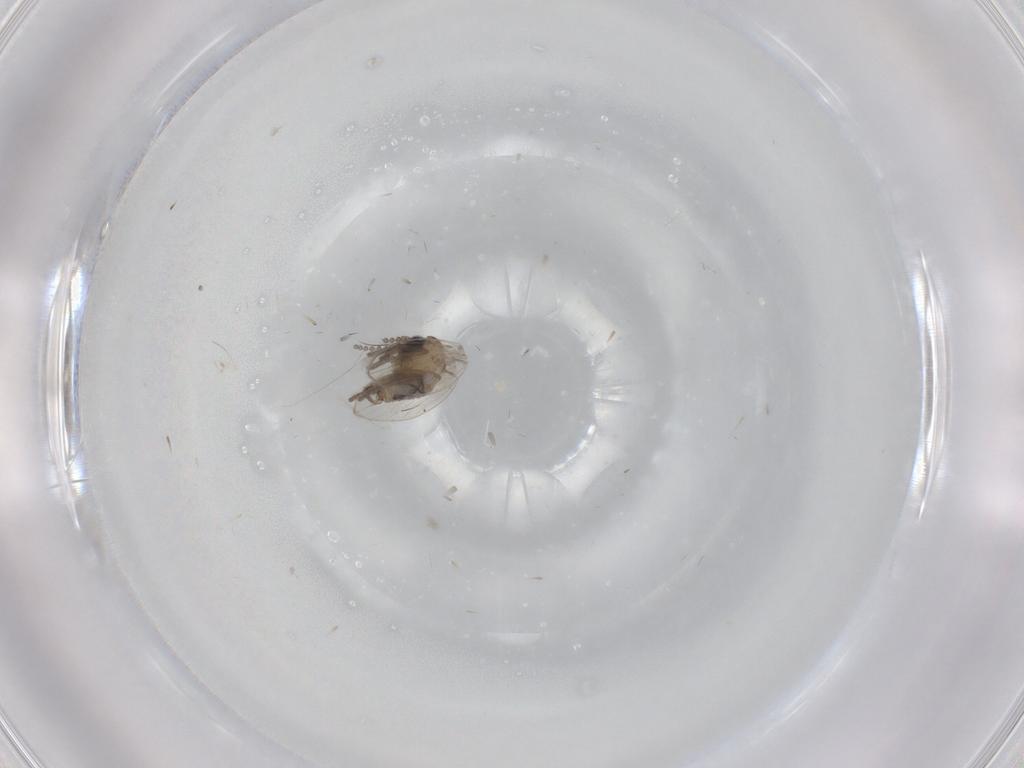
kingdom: Animalia
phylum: Arthropoda
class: Insecta
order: Diptera
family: Psychodidae
